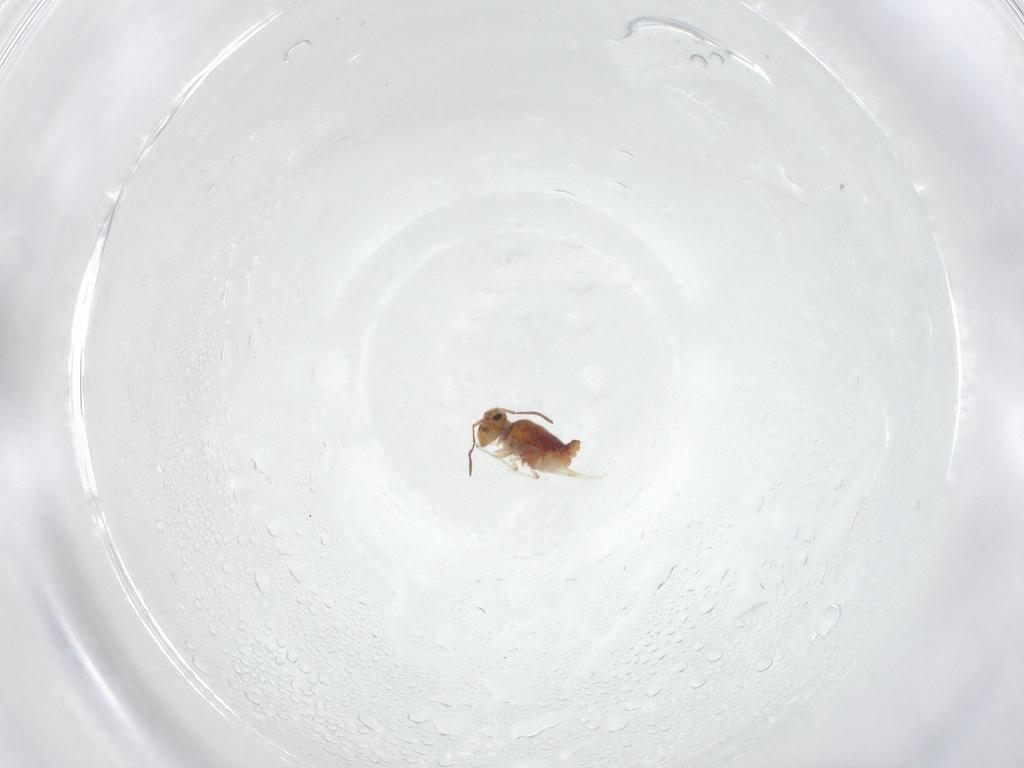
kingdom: Animalia
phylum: Arthropoda
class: Collembola
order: Symphypleona
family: Bourletiellidae
